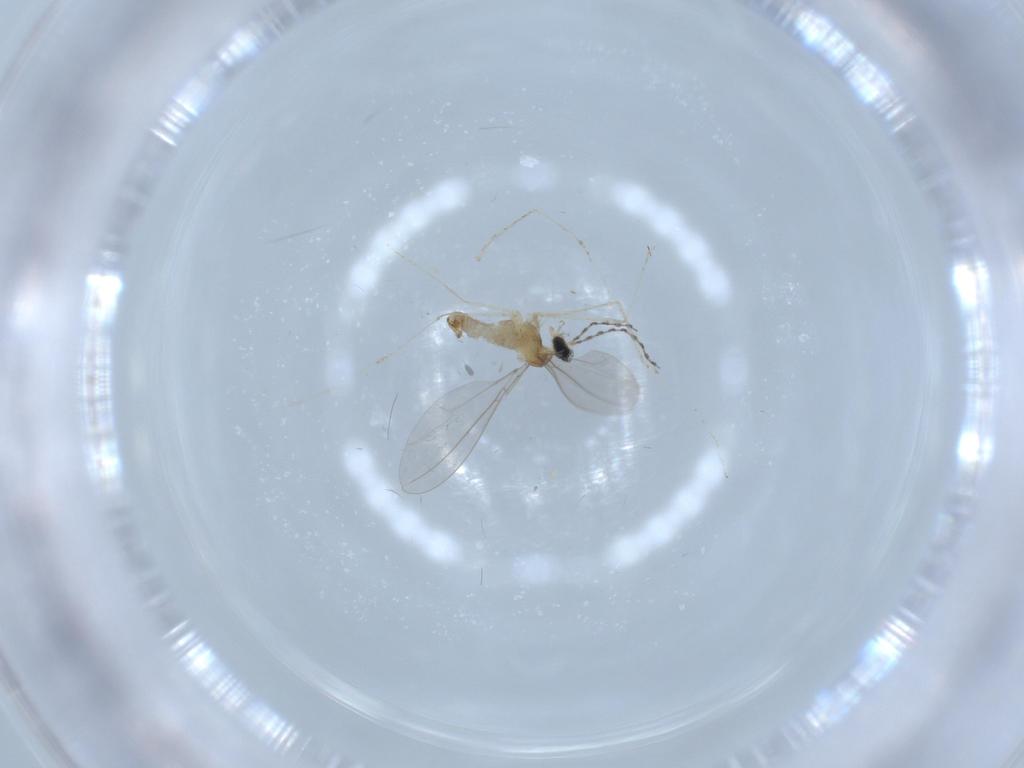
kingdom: Animalia
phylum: Arthropoda
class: Insecta
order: Diptera
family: Cecidomyiidae
